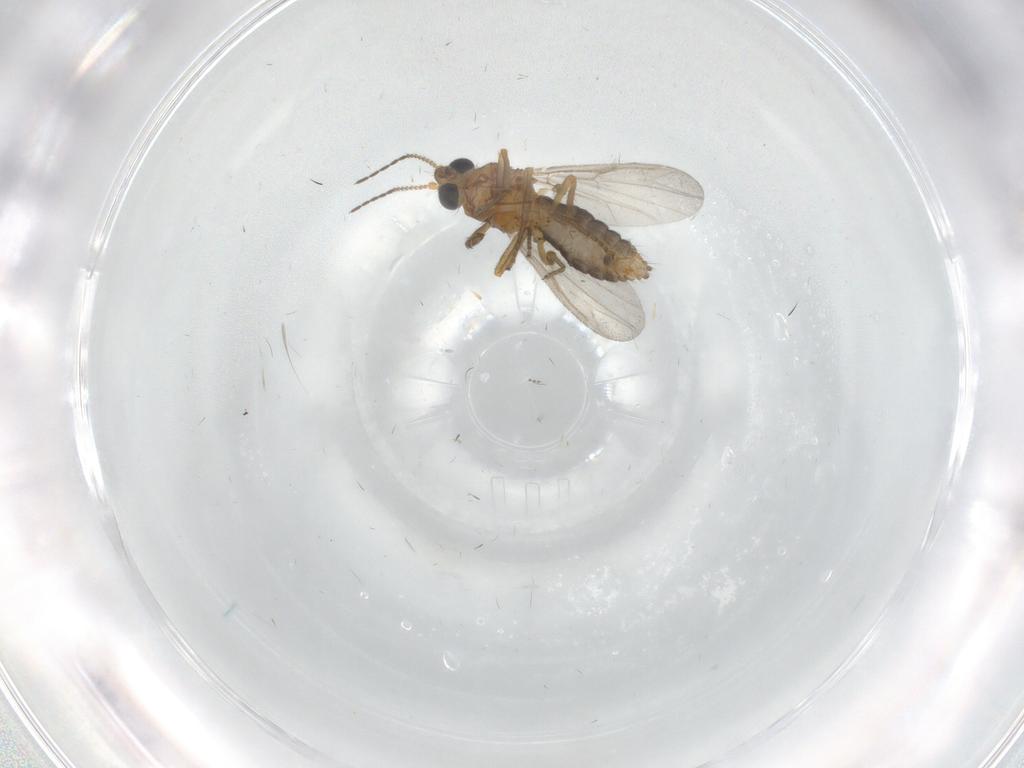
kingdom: Animalia
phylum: Arthropoda
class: Insecta
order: Diptera
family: Ceratopogonidae
